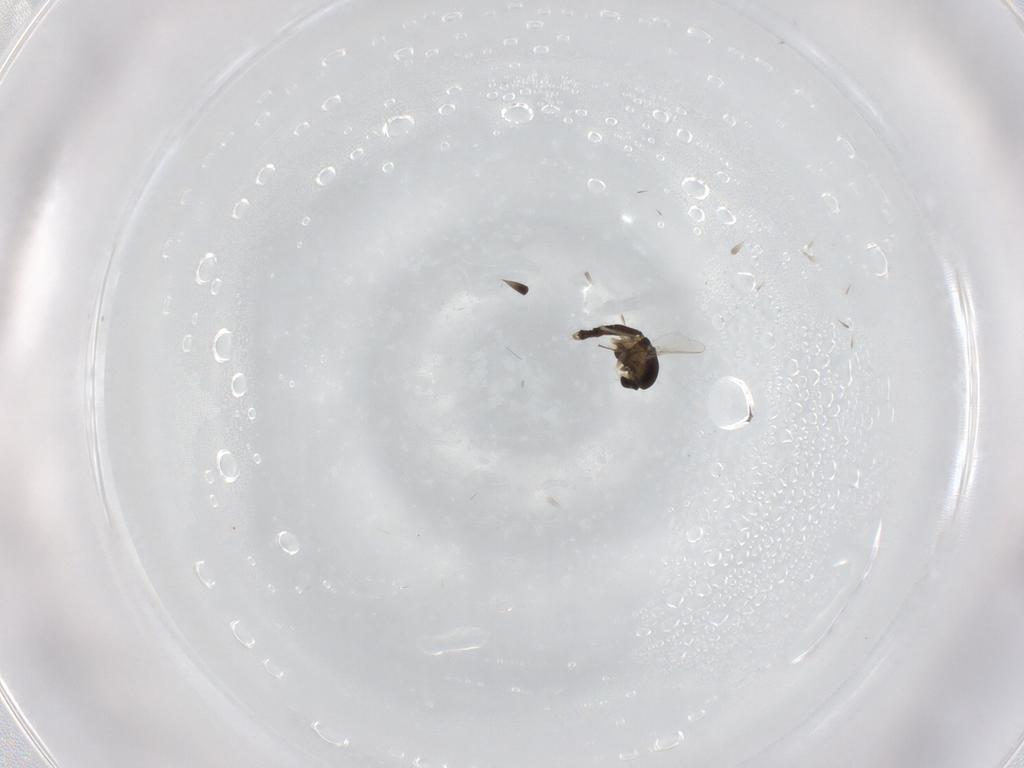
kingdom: Animalia
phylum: Arthropoda
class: Insecta
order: Diptera
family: Chironomidae
